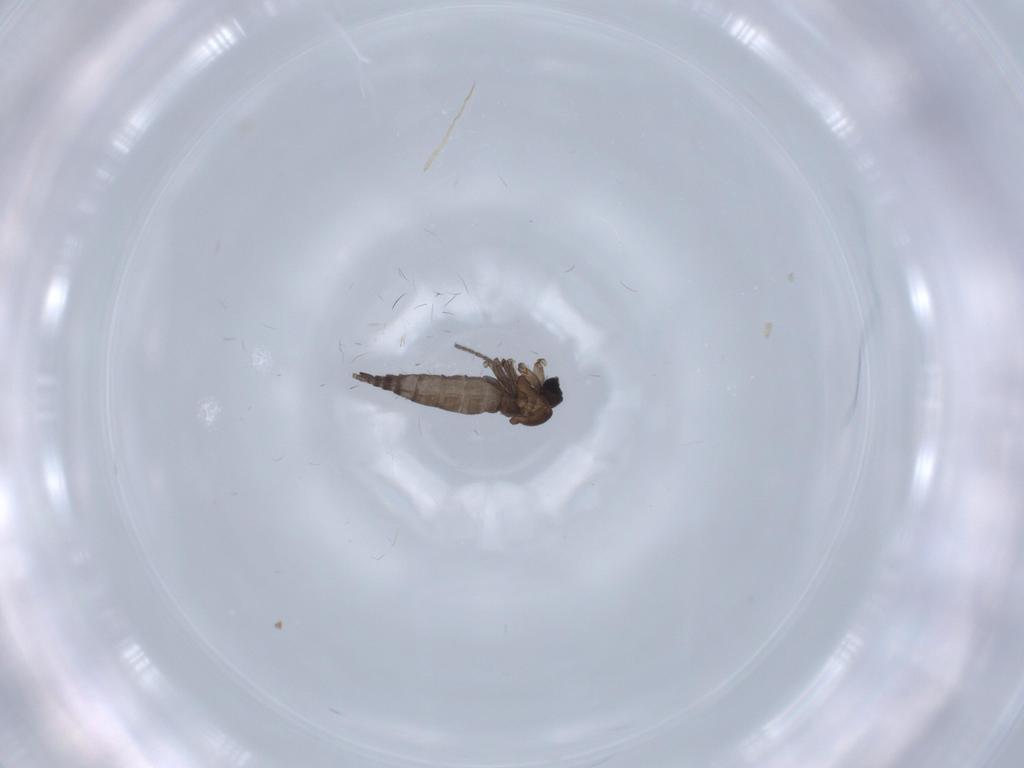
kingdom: Animalia
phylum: Arthropoda
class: Insecta
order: Diptera
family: Sciaridae
